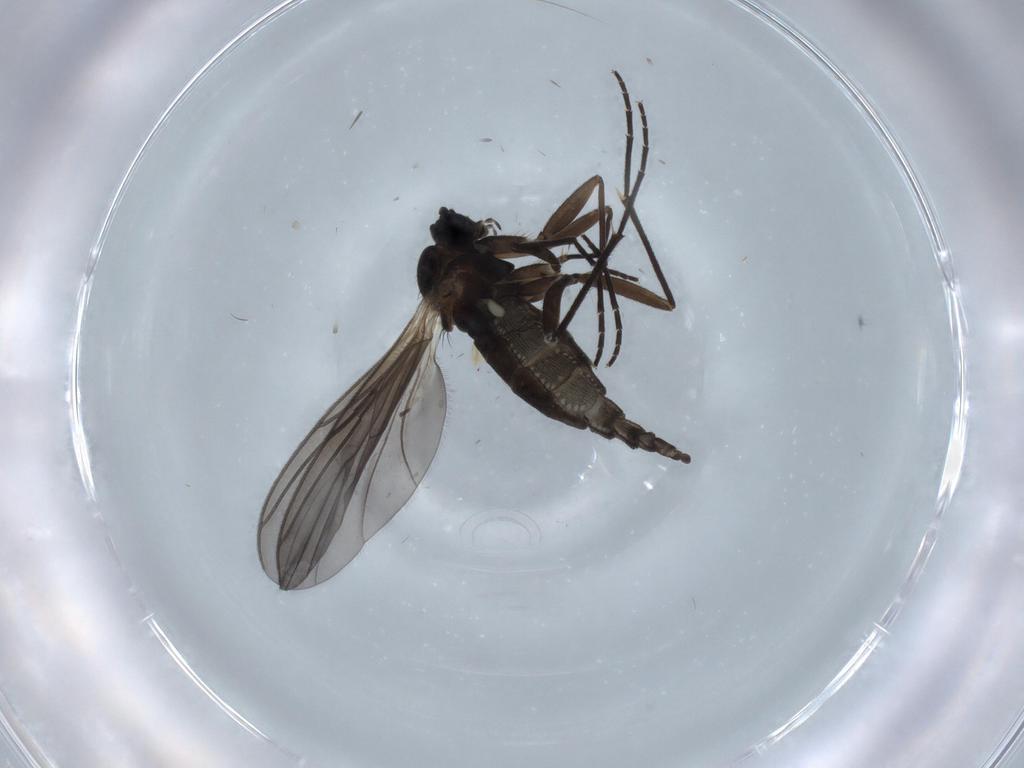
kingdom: Animalia
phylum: Arthropoda
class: Insecta
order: Diptera
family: Sciaridae
